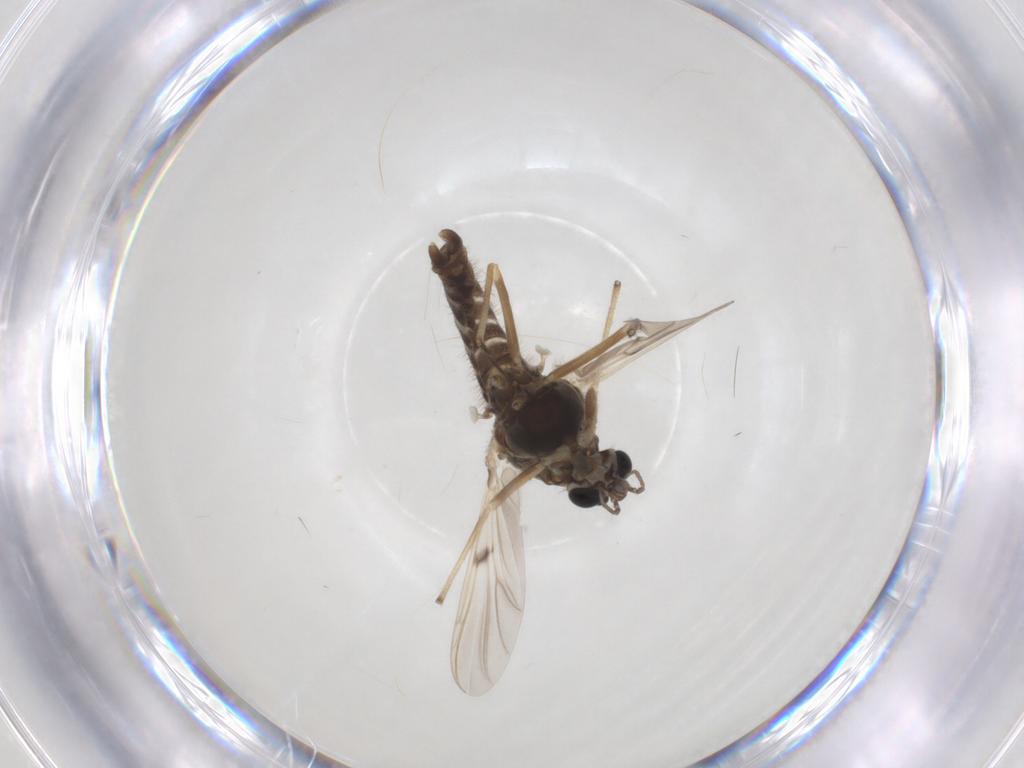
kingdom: Animalia
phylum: Arthropoda
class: Insecta
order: Diptera
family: Chironomidae
